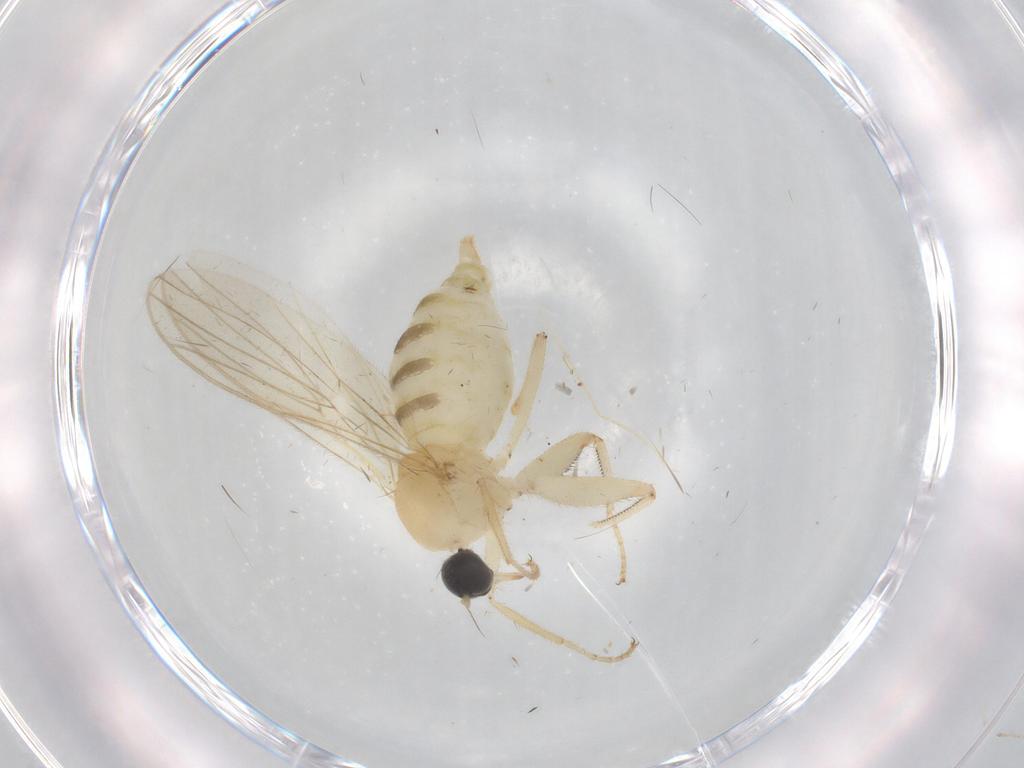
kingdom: Animalia
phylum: Arthropoda
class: Insecta
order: Diptera
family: Hybotidae
